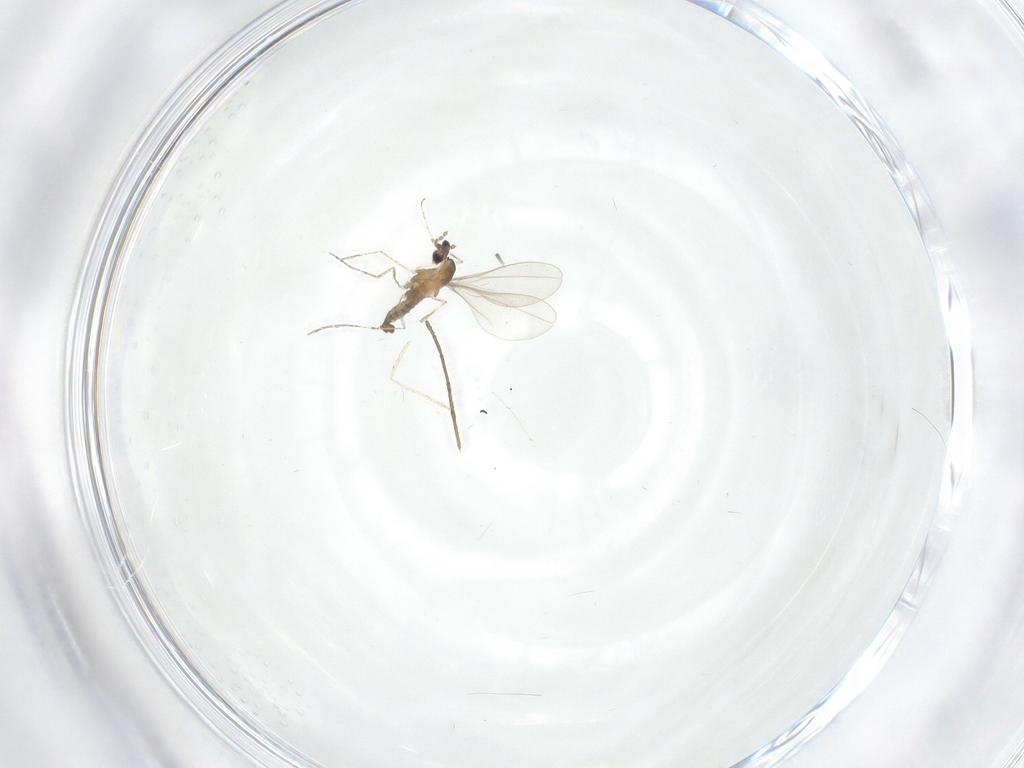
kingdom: Animalia
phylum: Arthropoda
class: Insecta
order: Diptera
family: Cecidomyiidae
